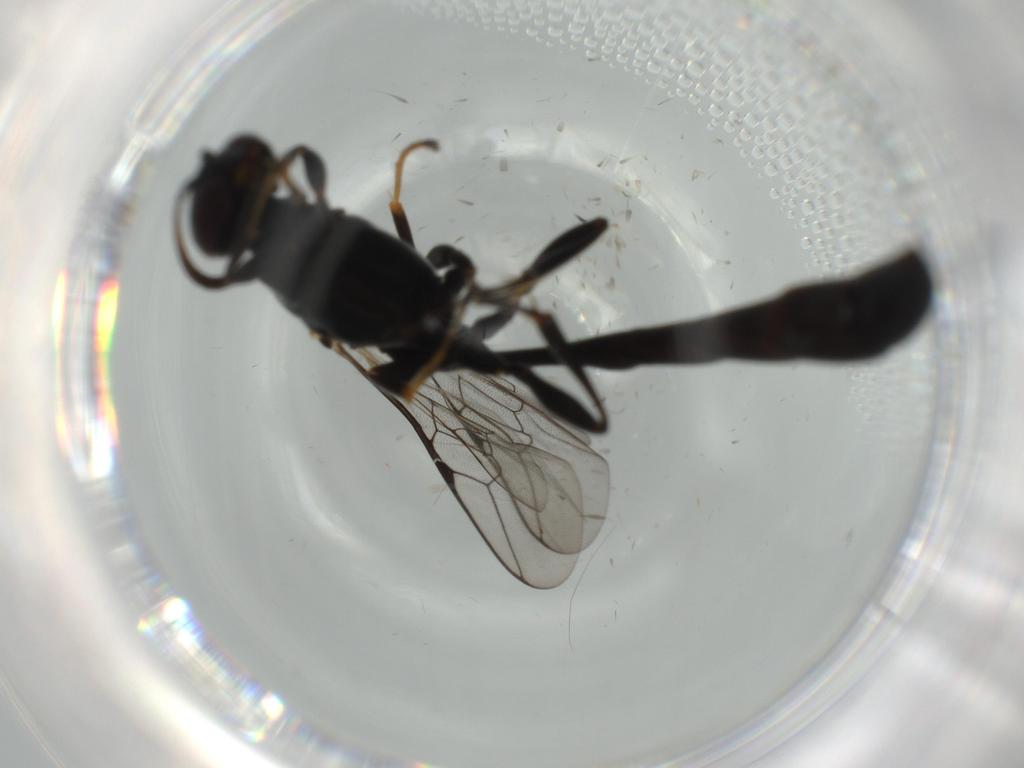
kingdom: Animalia
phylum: Arthropoda
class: Insecta
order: Hymenoptera
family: Crabronidae
